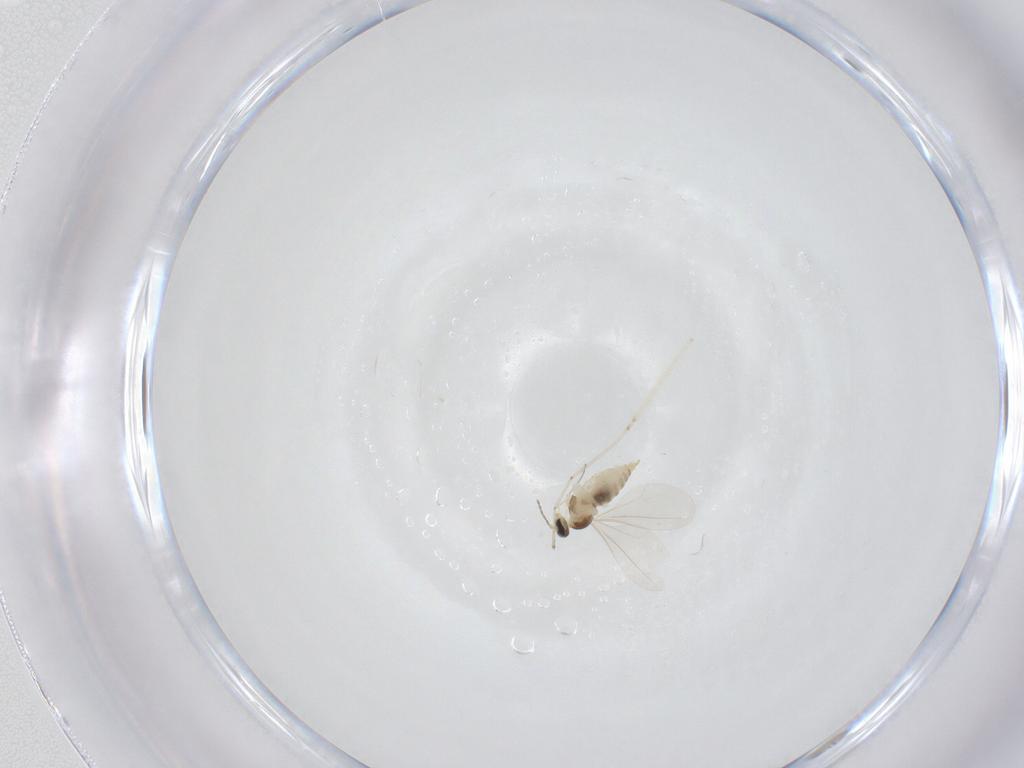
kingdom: Animalia
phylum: Arthropoda
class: Insecta
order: Diptera
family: Cecidomyiidae
